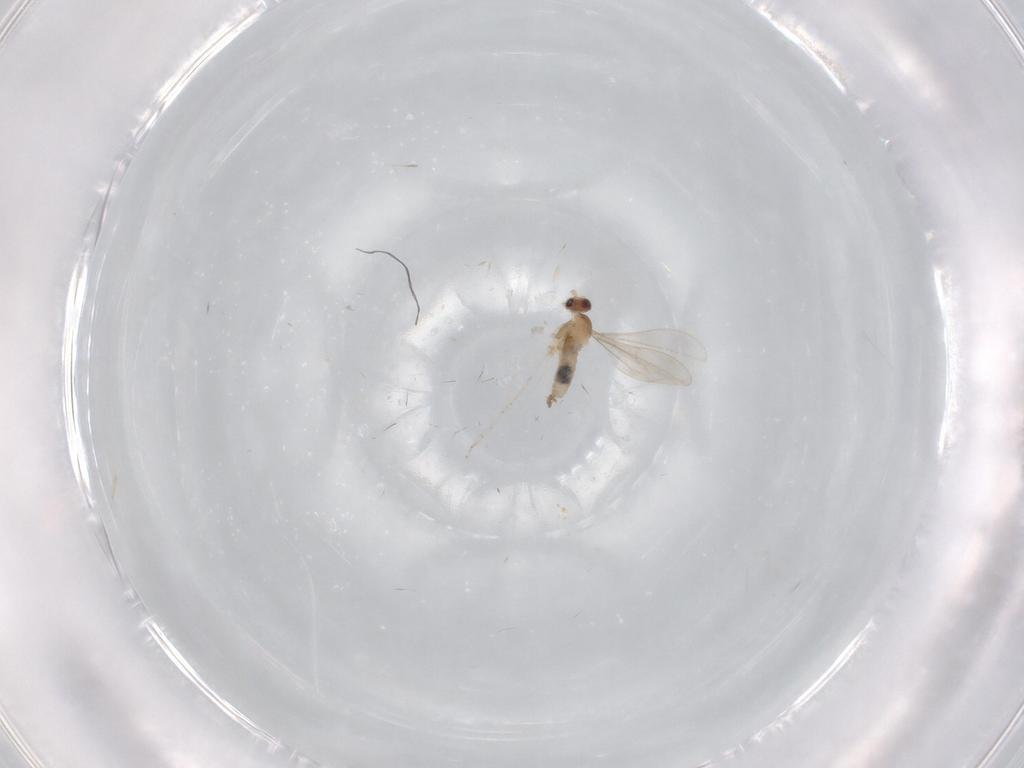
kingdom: Animalia
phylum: Arthropoda
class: Insecta
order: Diptera
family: Cecidomyiidae
